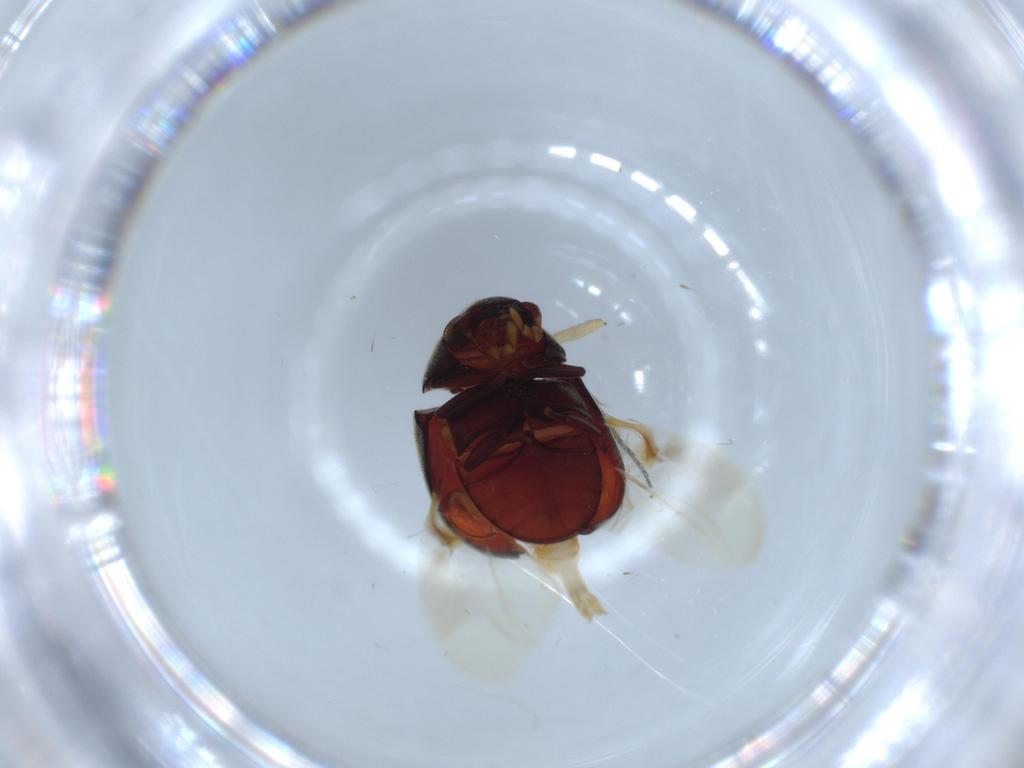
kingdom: Animalia
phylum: Arthropoda
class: Insecta
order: Coleoptera
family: Ptinidae
